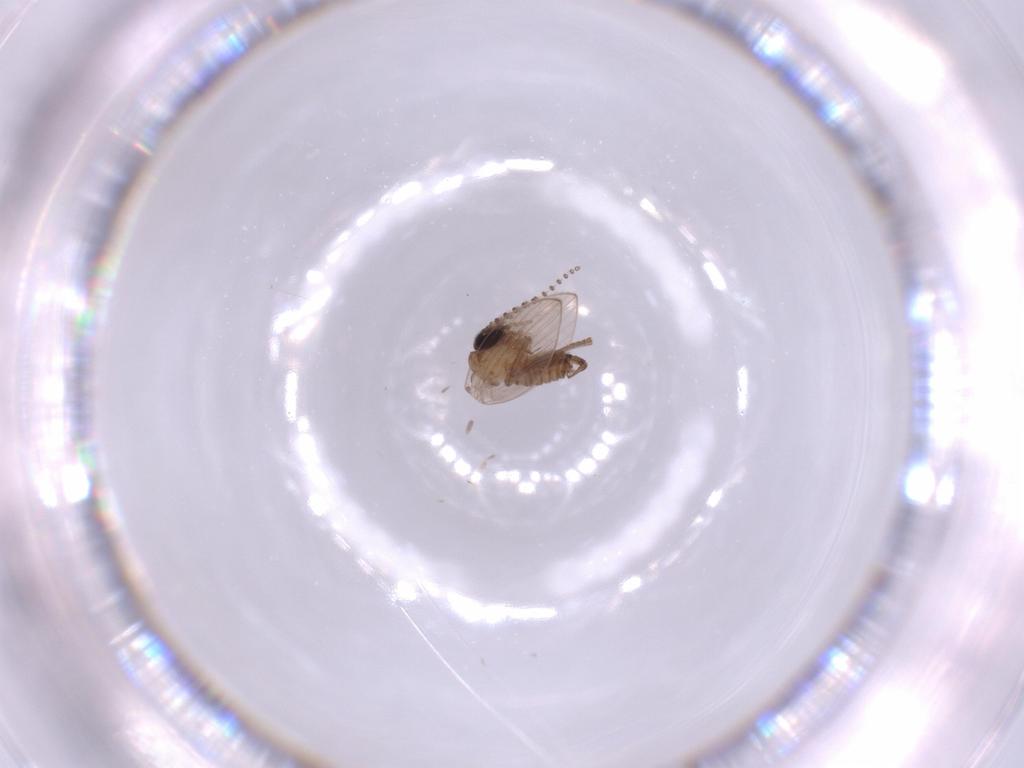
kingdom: Animalia
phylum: Arthropoda
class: Insecta
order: Diptera
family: Psychodidae
